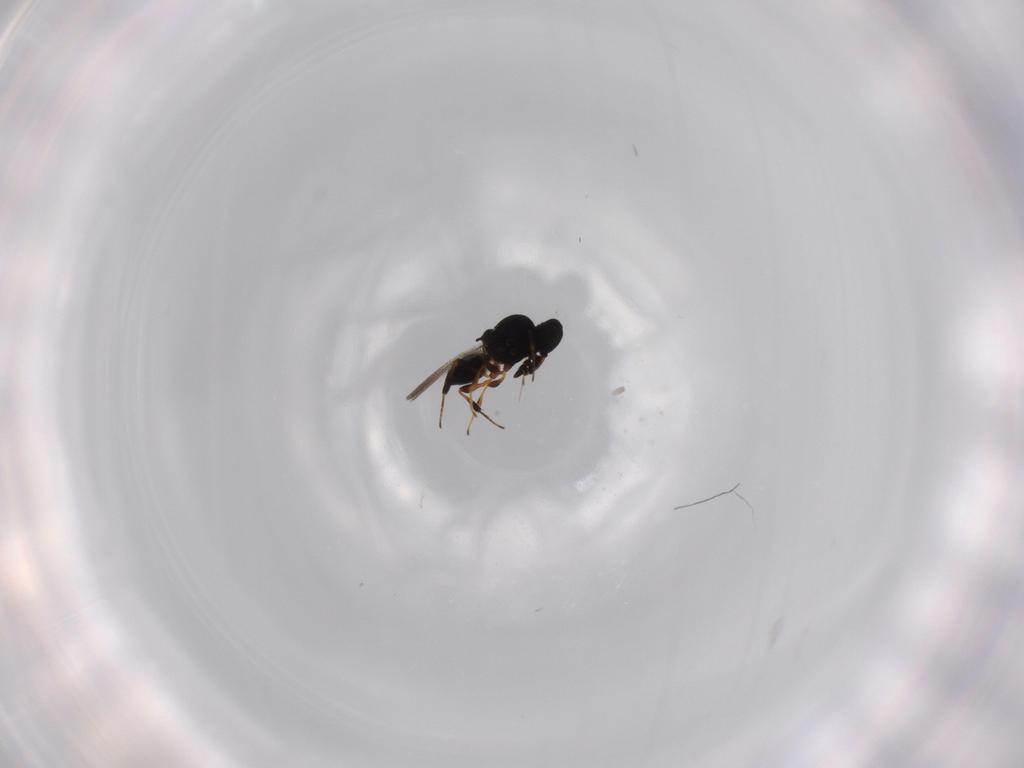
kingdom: Animalia
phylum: Arthropoda
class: Insecta
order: Hymenoptera
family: Platygastridae
